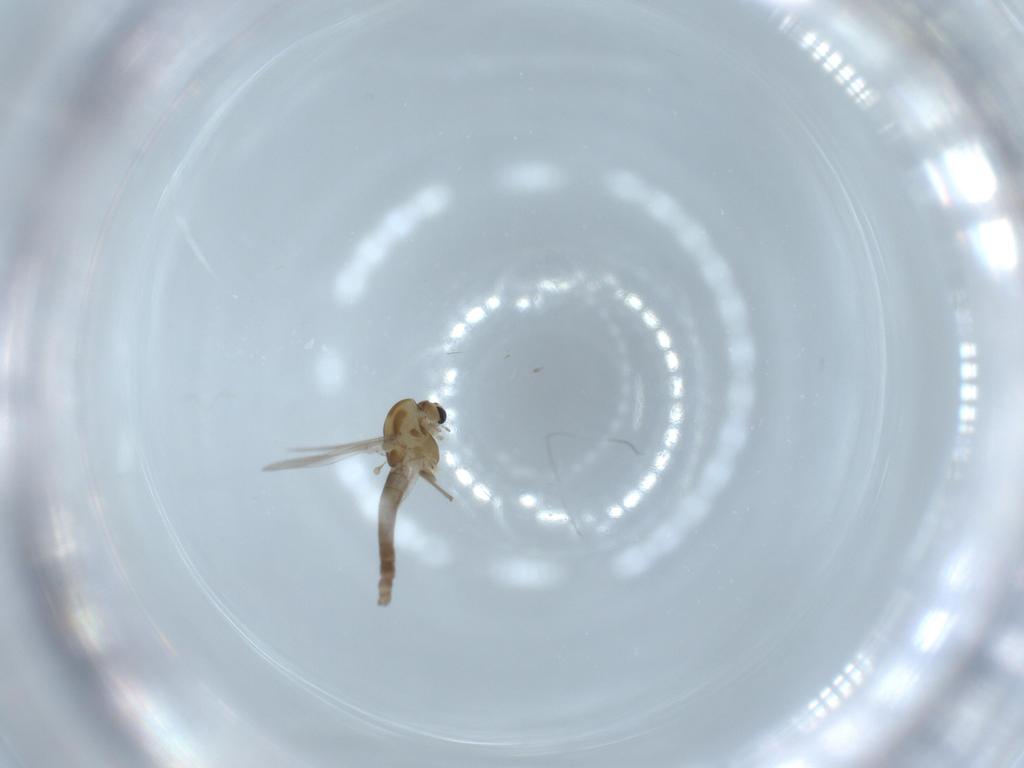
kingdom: Animalia
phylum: Arthropoda
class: Insecta
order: Diptera
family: Chironomidae
